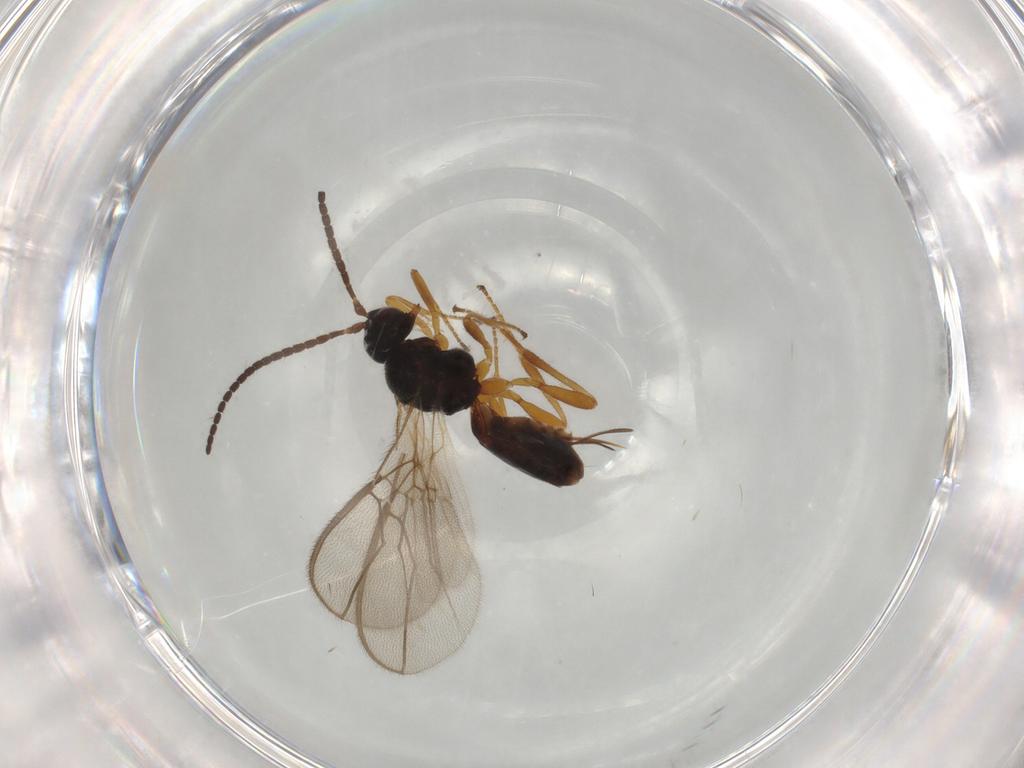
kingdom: Animalia
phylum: Arthropoda
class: Insecta
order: Hymenoptera
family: Braconidae
